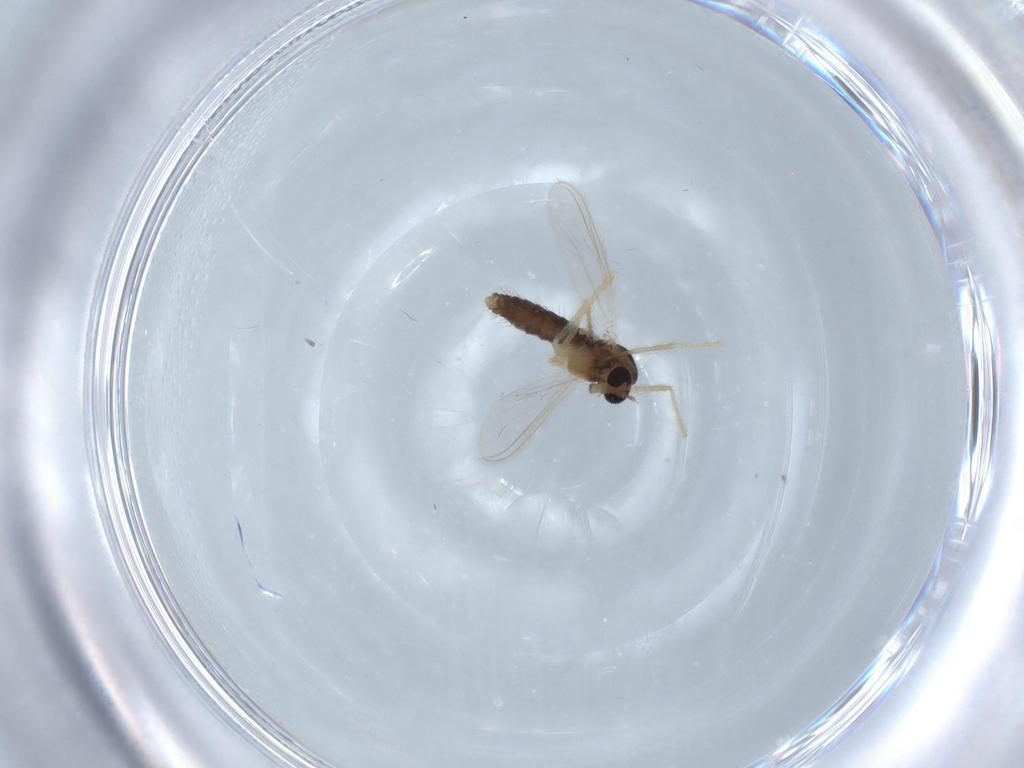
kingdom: Animalia
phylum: Arthropoda
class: Insecta
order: Diptera
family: Chironomidae
